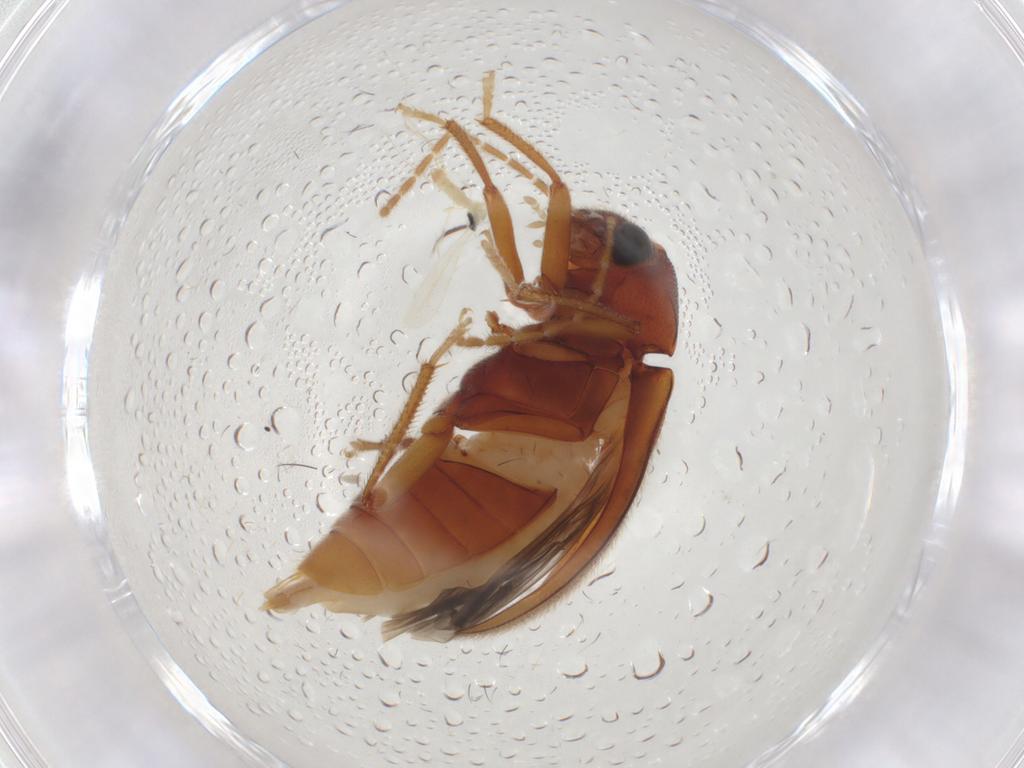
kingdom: Animalia
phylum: Arthropoda
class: Insecta
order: Coleoptera
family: Ptilodactylidae
